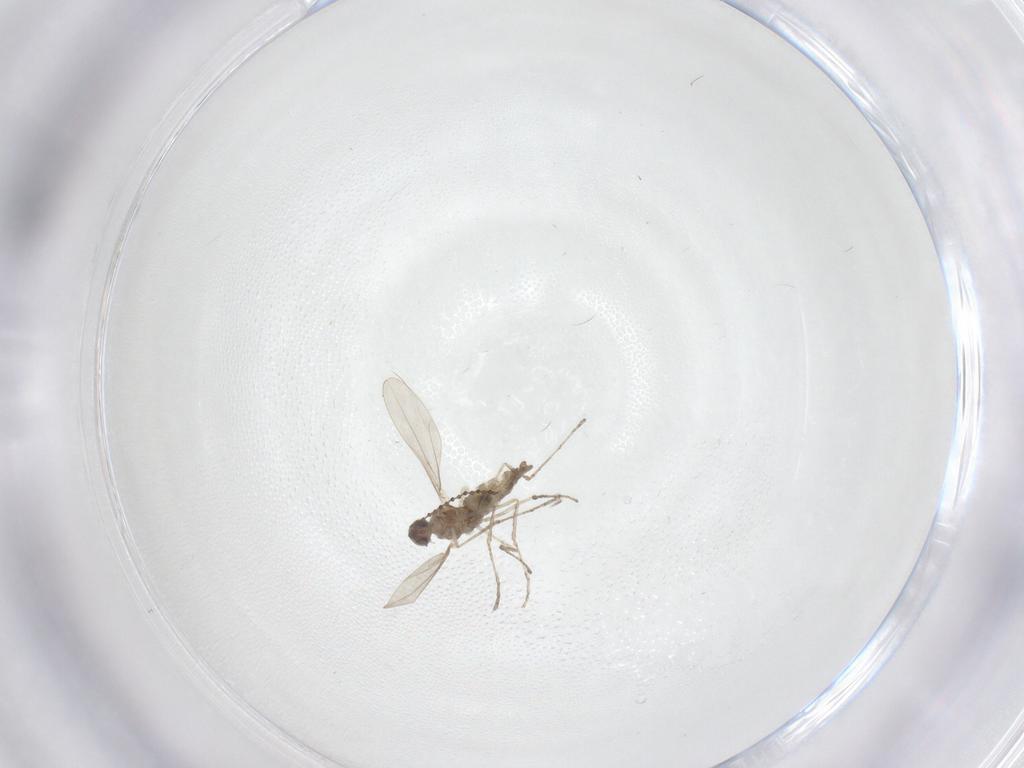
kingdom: Animalia
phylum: Arthropoda
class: Insecta
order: Diptera
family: Cecidomyiidae
